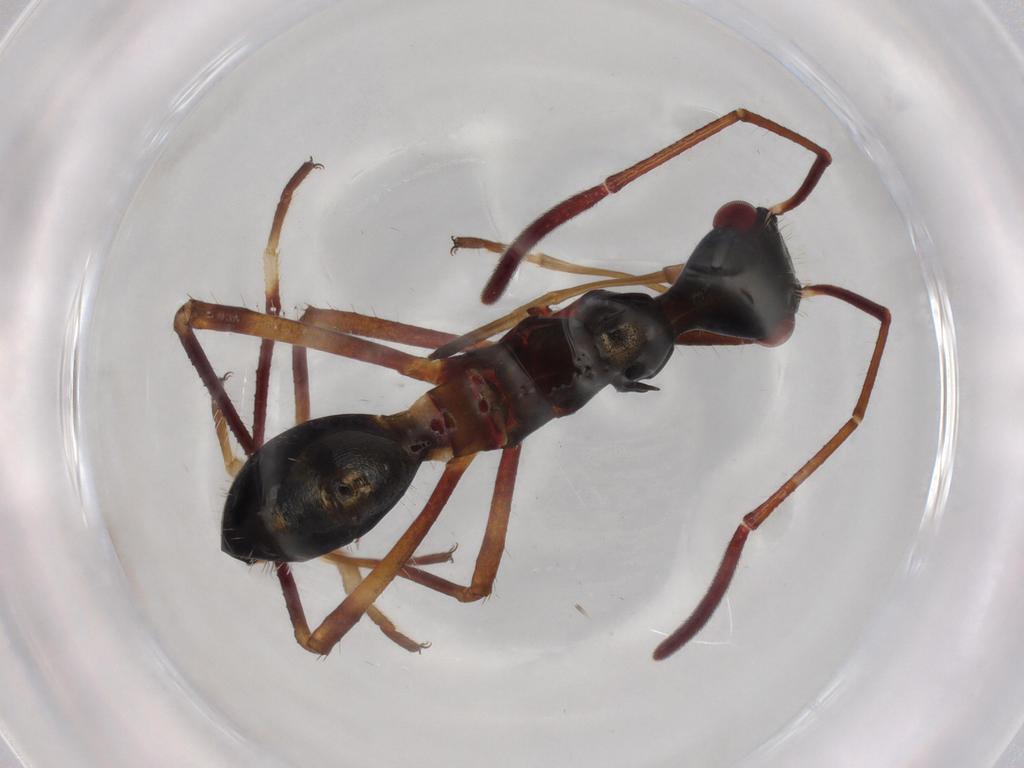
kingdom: Animalia
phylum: Arthropoda
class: Insecta
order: Hemiptera
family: Alydidae
